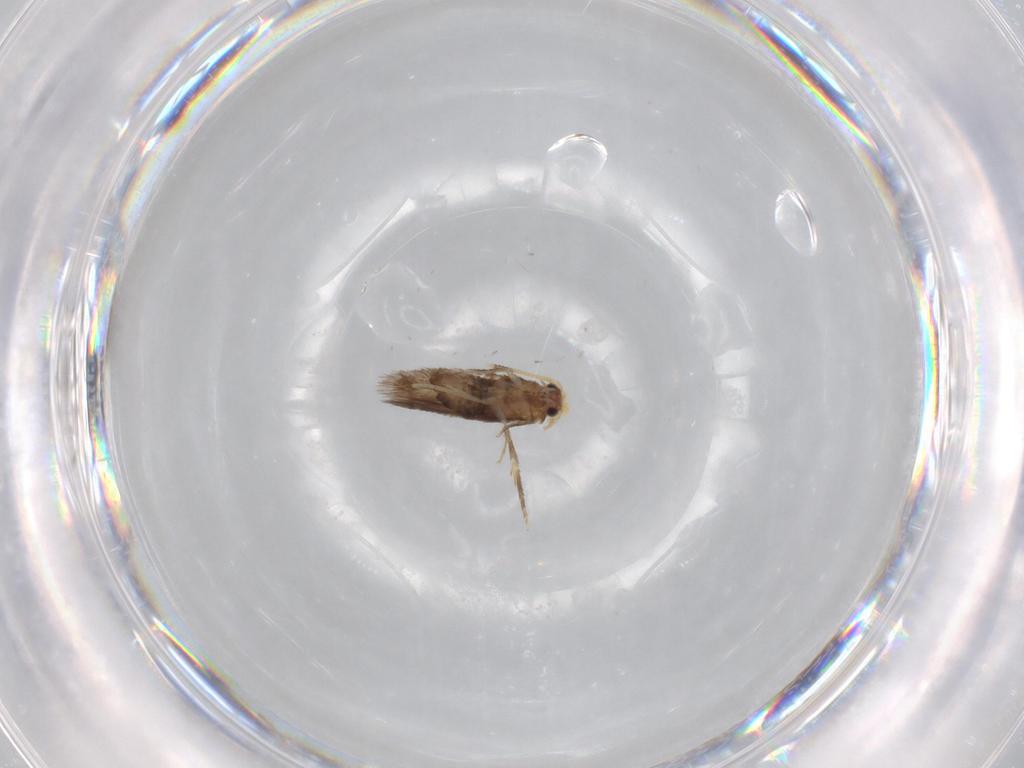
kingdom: Animalia
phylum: Arthropoda
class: Insecta
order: Lepidoptera
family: Nepticulidae
